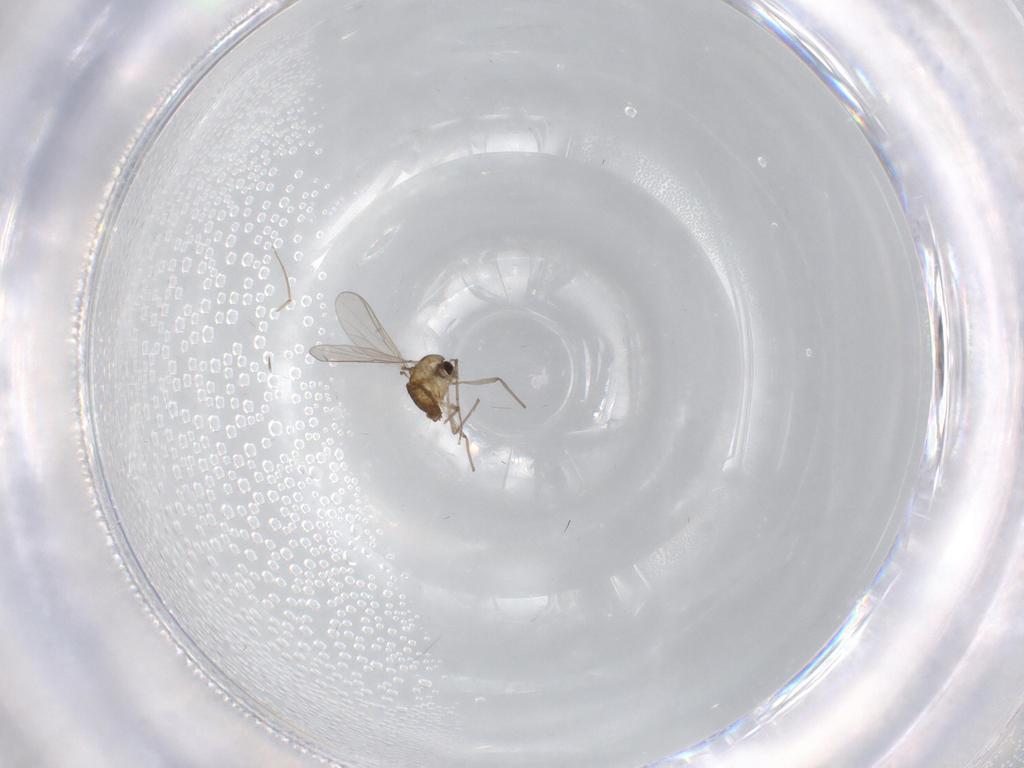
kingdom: Animalia
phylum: Arthropoda
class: Insecta
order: Diptera
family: Cecidomyiidae
